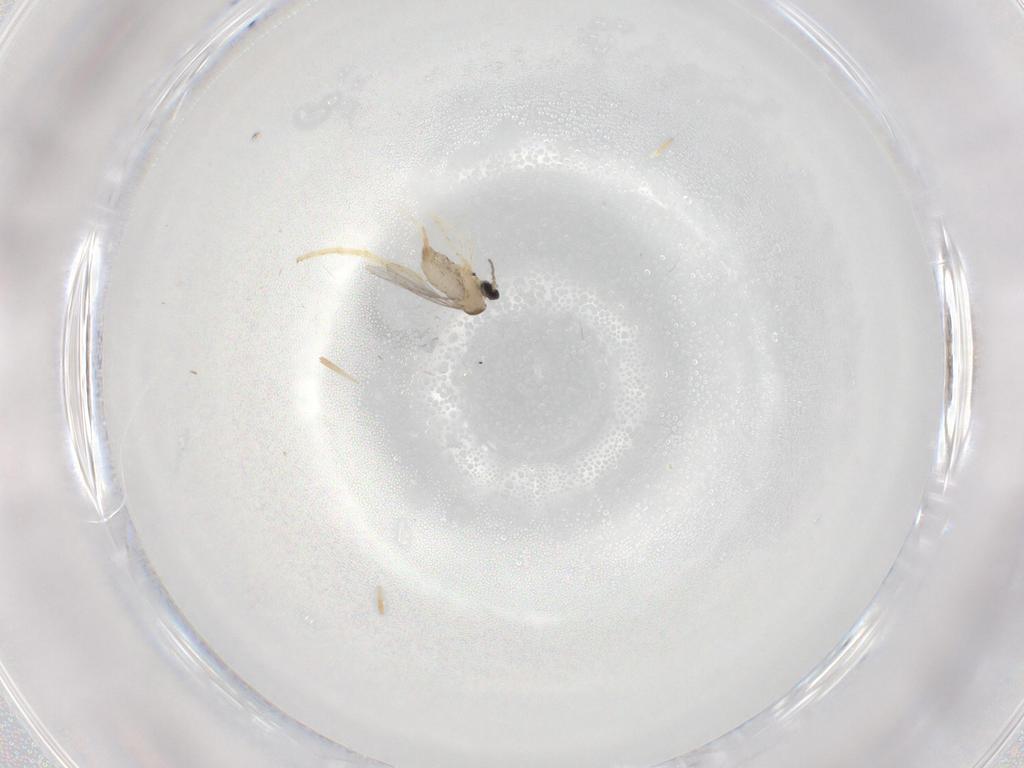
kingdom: Animalia
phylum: Arthropoda
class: Insecta
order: Diptera
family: Cecidomyiidae
